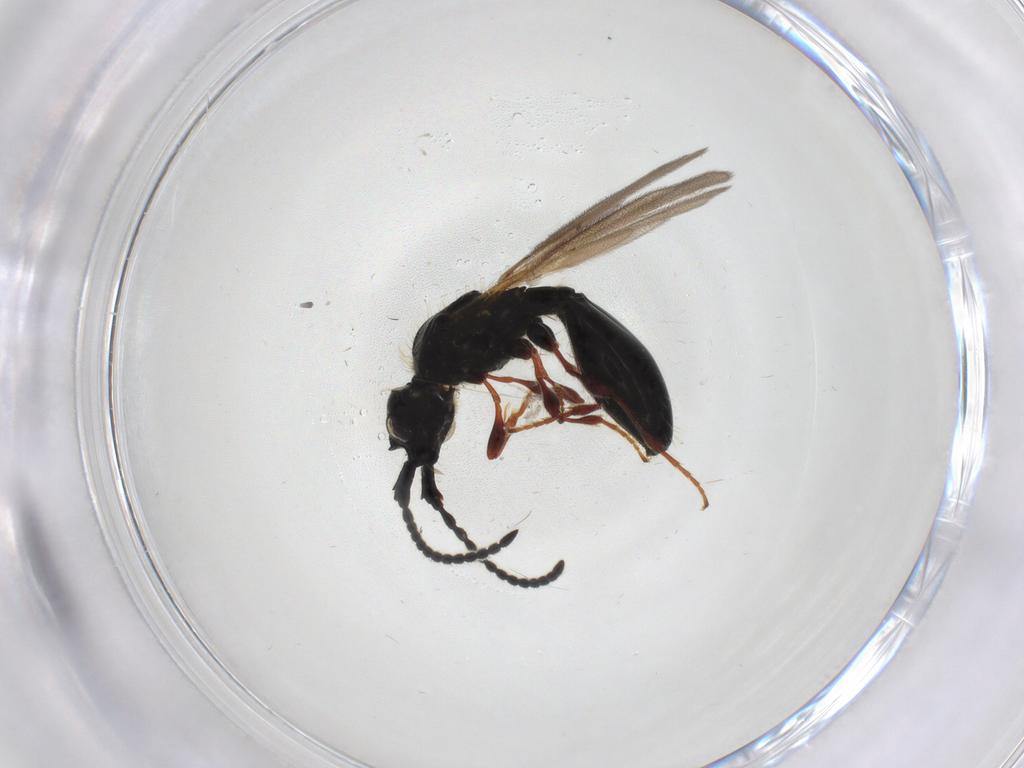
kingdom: Animalia
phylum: Arthropoda
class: Insecta
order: Hymenoptera
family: Diapriidae
